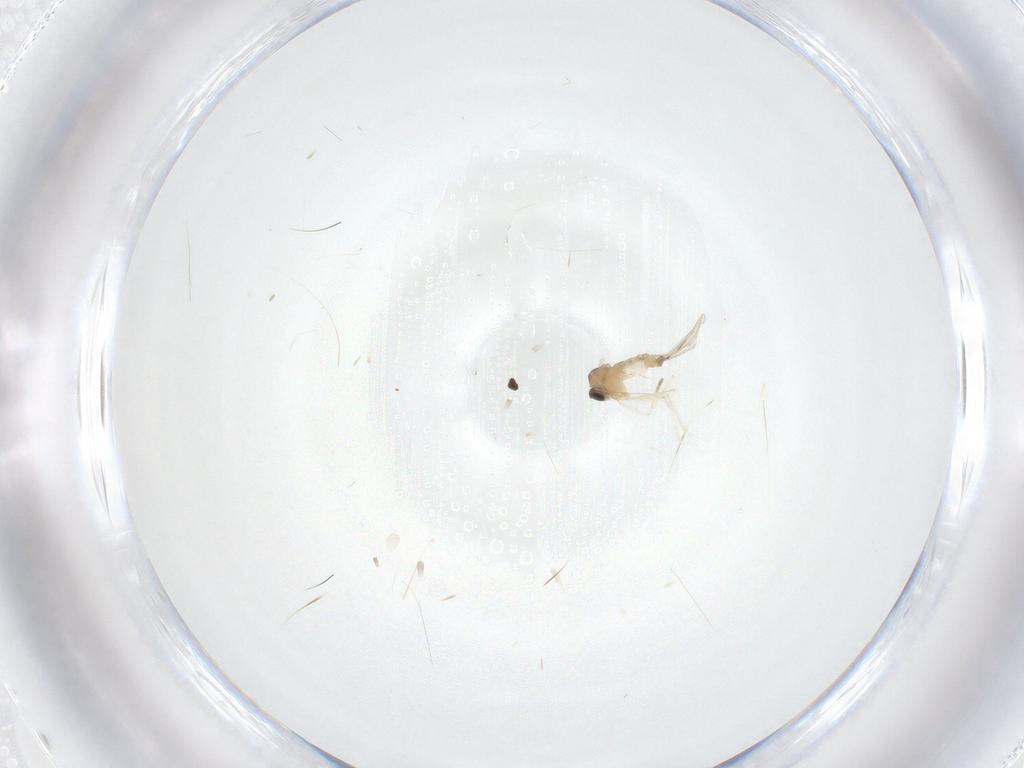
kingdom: Animalia
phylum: Arthropoda
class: Insecta
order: Diptera
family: Cecidomyiidae
